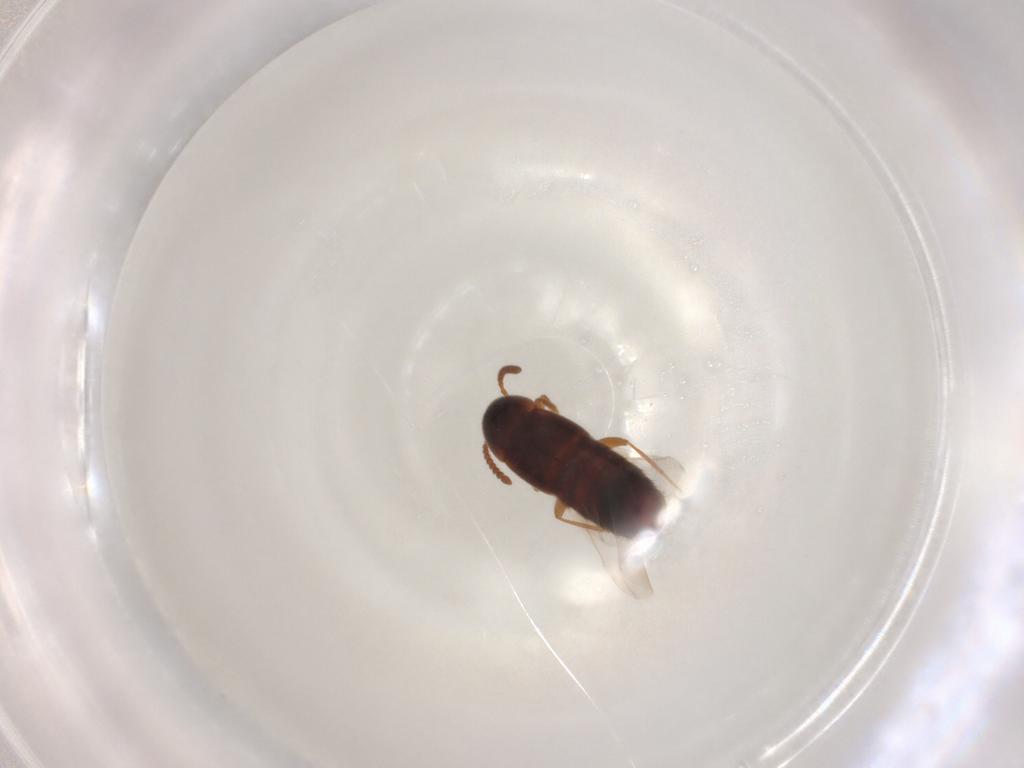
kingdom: Animalia
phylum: Arthropoda
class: Insecta
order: Coleoptera
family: Staphylinidae
